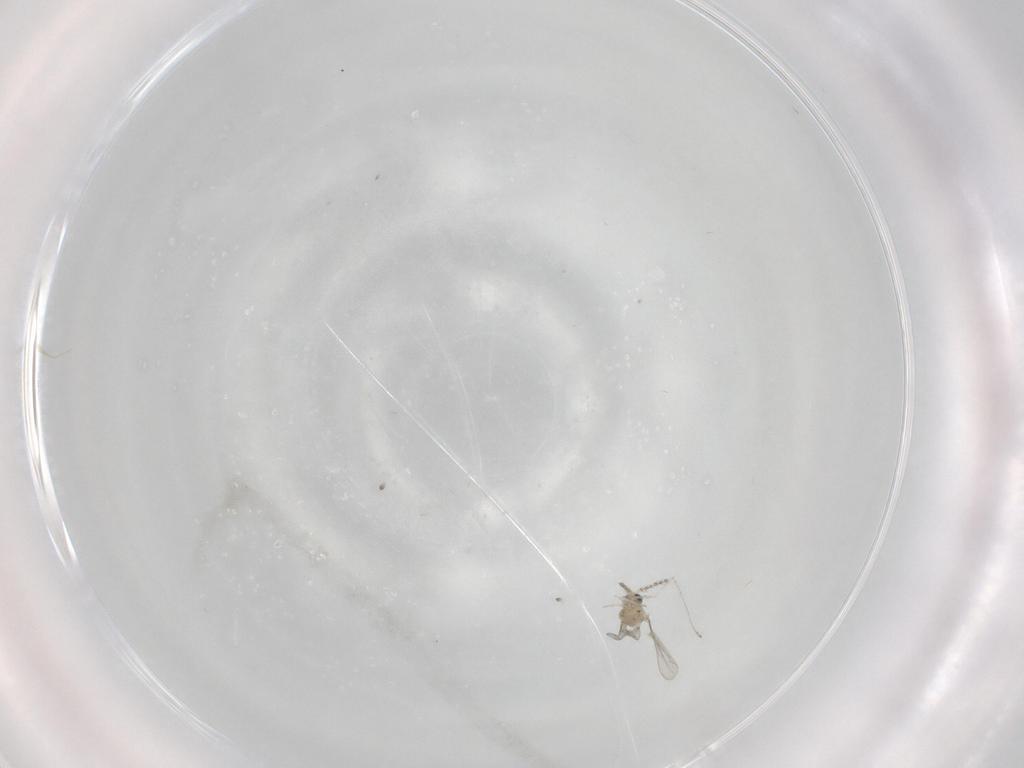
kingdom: Animalia
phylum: Arthropoda
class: Insecta
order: Diptera
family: Cecidomyiidae
